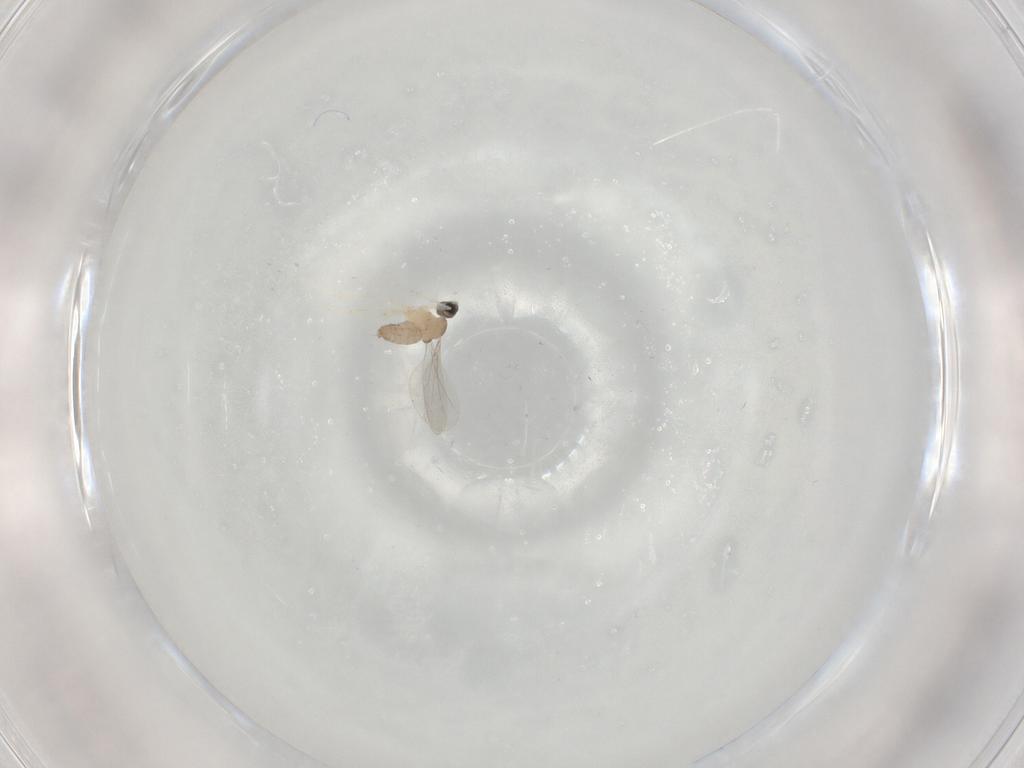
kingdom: Animalia
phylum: Arthropoda
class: Insecta
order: Diptera
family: Cecidomyiidae
